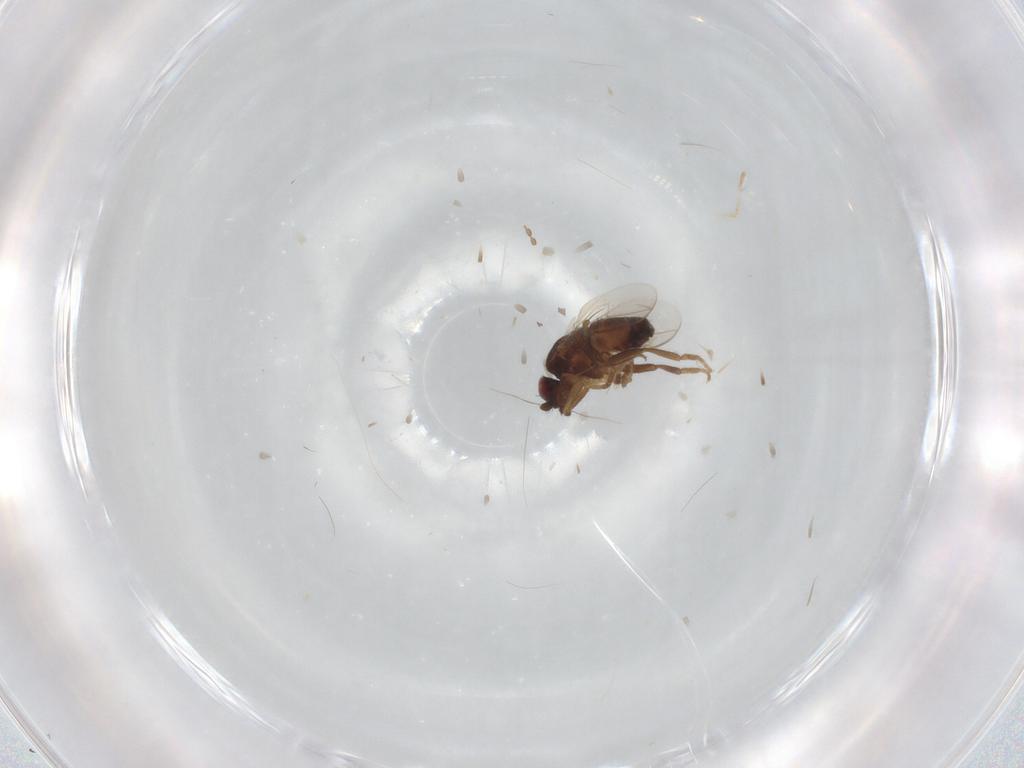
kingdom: Animalia
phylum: Arthropoda
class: Insecta
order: Diptera
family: Sphaeroceridae
